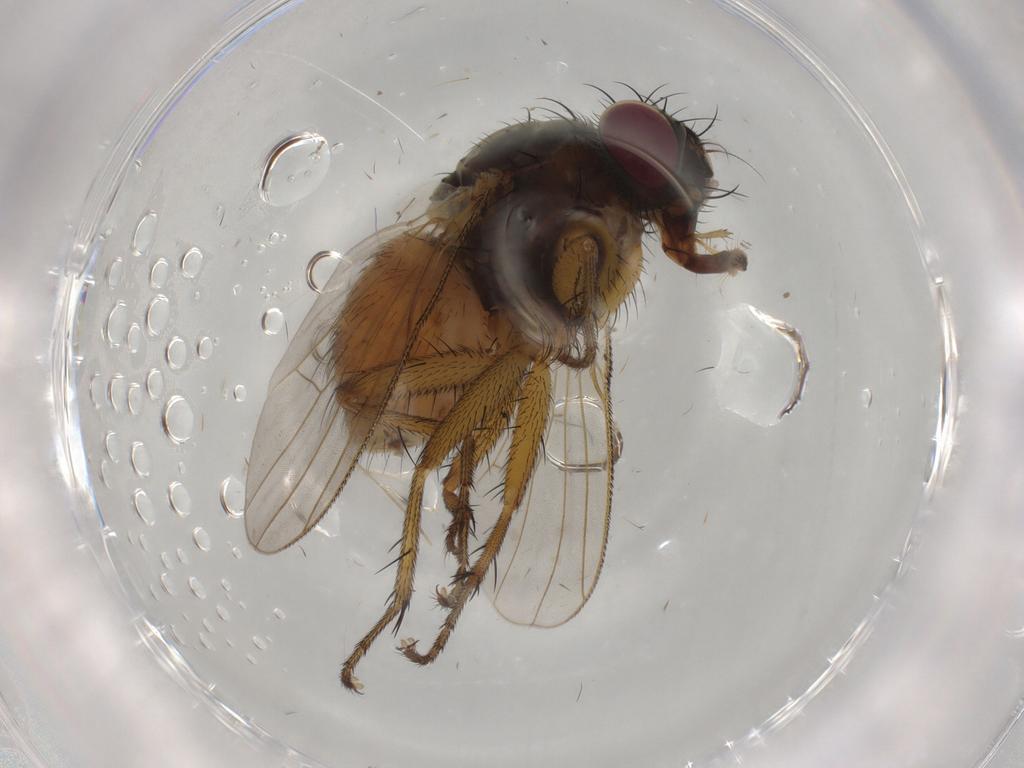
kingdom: Animalia
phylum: Arthropoda
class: Insecta
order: Diptera
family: Muscidae
